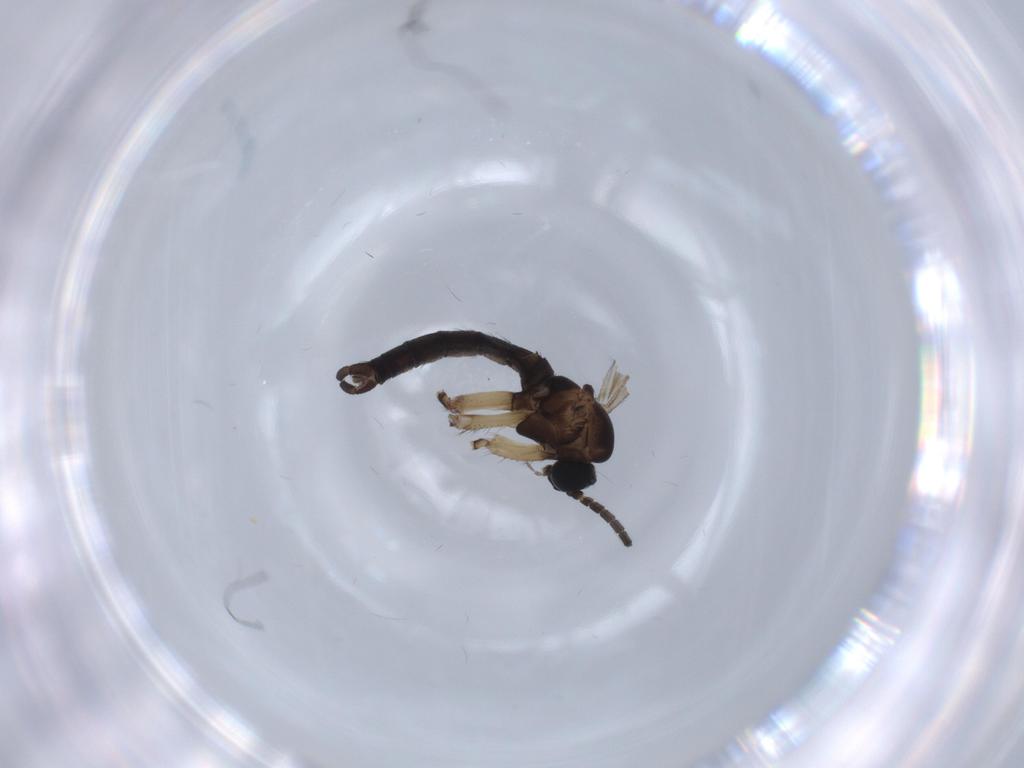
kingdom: Animalia
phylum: Arthropoda
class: Insecta
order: Diptera
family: Sciaridae
